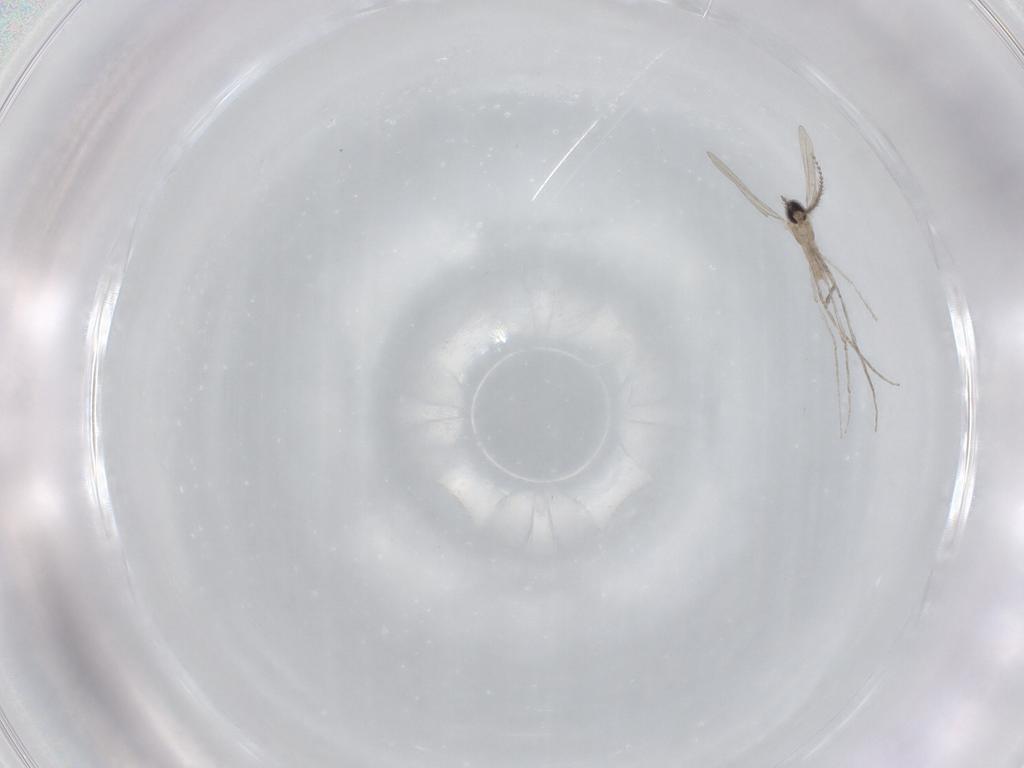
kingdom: Animalia
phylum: Arthropoda
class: Insecta
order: Diptera
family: Cecidomyiidae
